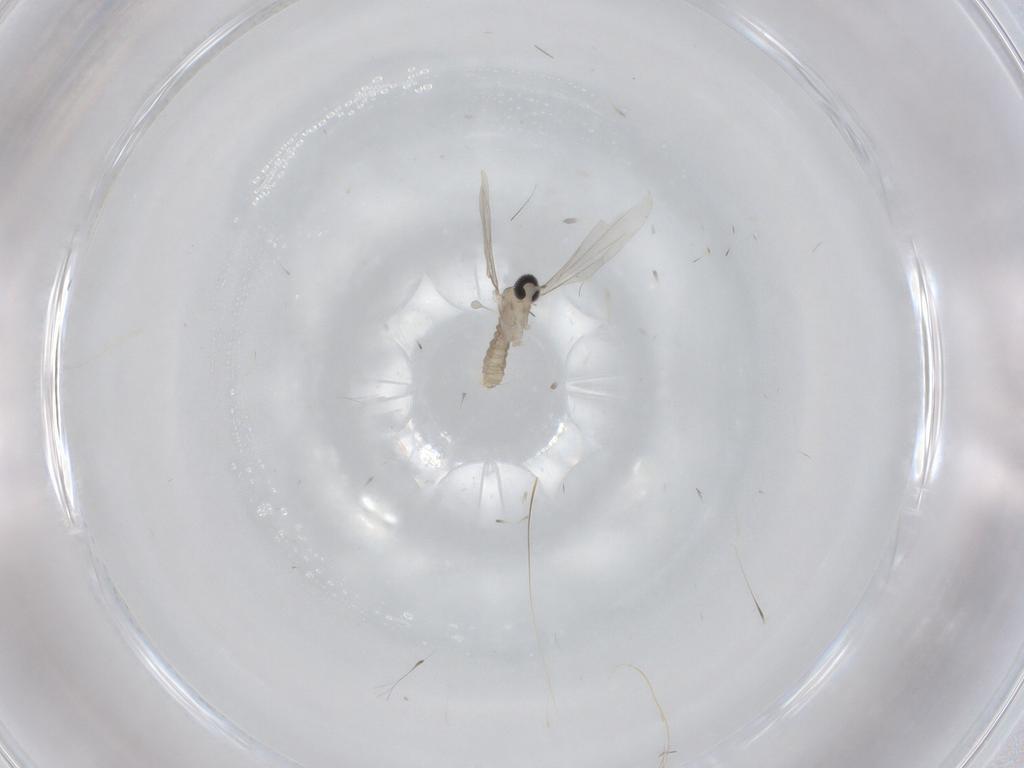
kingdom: Animalia
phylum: Arthropoda
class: Insecta
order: Diptera
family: Cecidomyiidae
